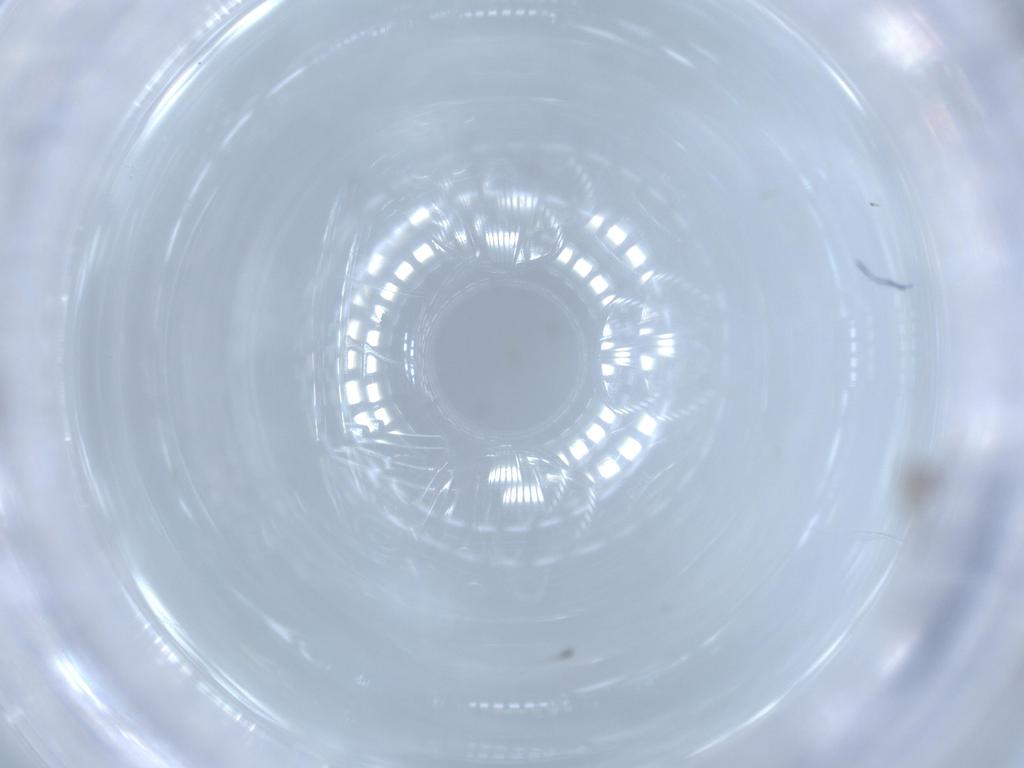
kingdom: Animalia
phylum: Arthropoda
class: Insecta
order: Diptera
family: Cecidomyiidae
